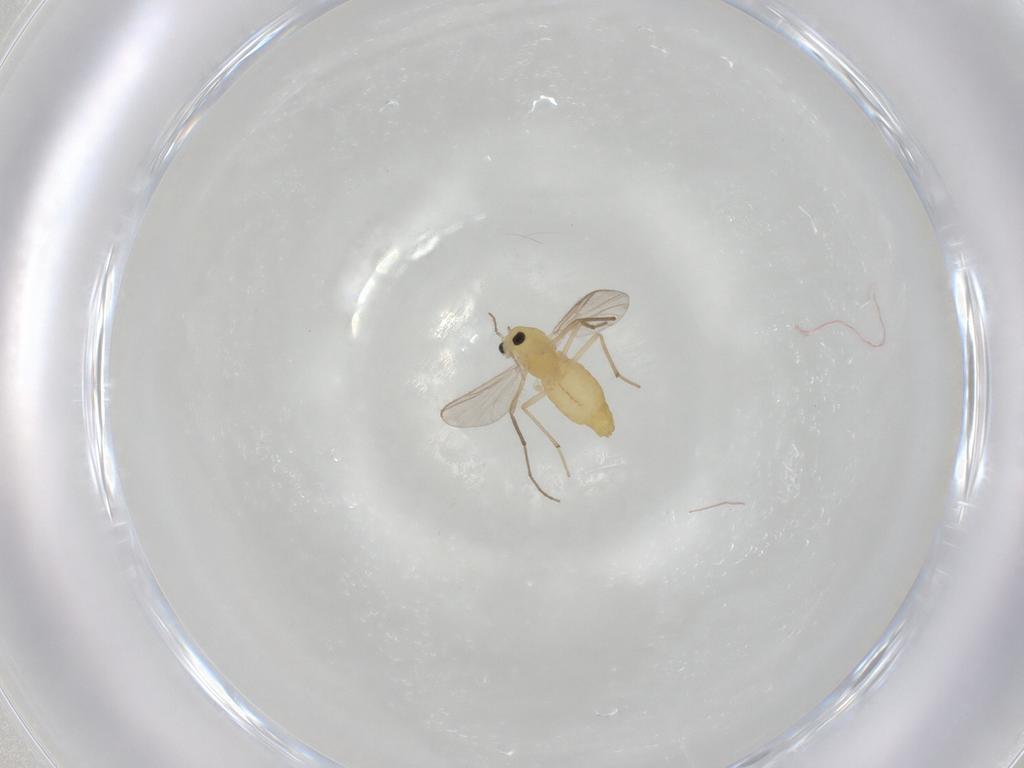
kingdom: Animalia
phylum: Arthropoda
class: Insecta
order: Diptera
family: Chironomidae
